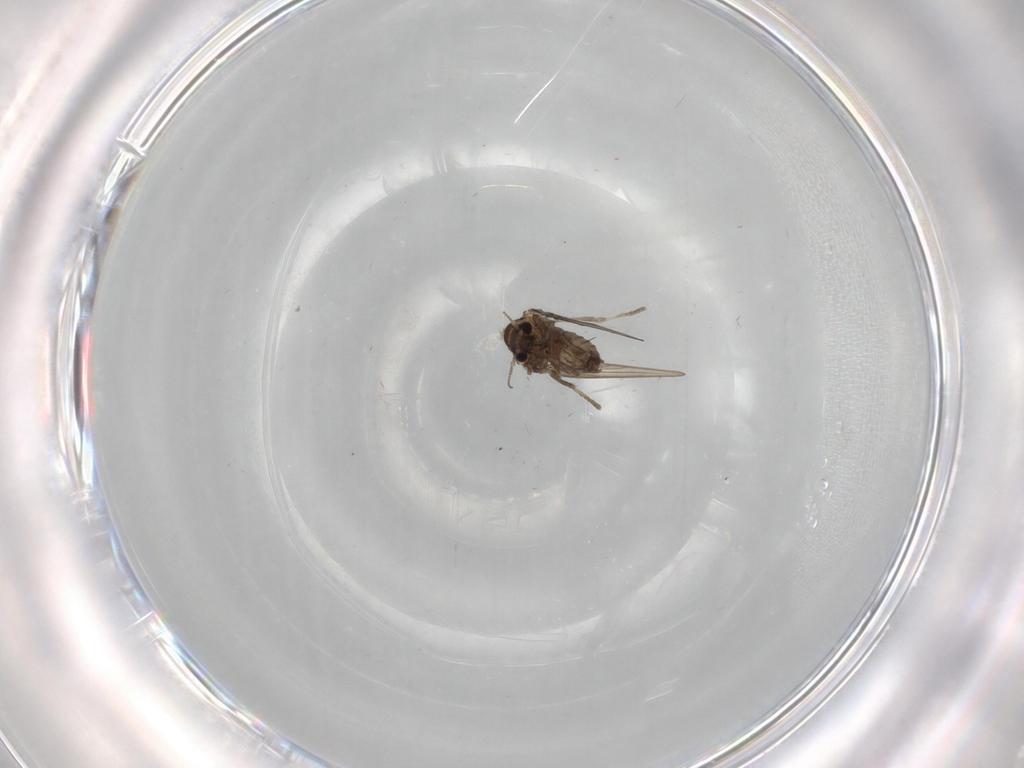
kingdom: Animalia
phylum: Arthropoda
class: Insecta
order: Diptera
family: Psychodidae
